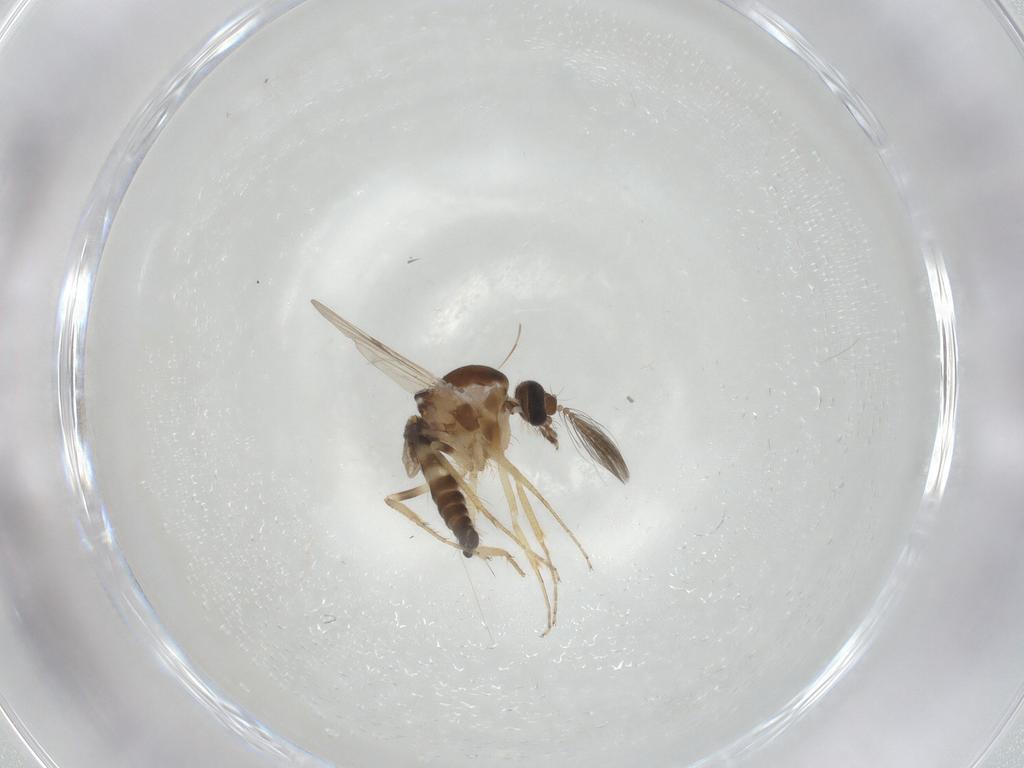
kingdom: Animalia
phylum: Arthropoda
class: Insecta
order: Diptera
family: Ceratopogonidae
